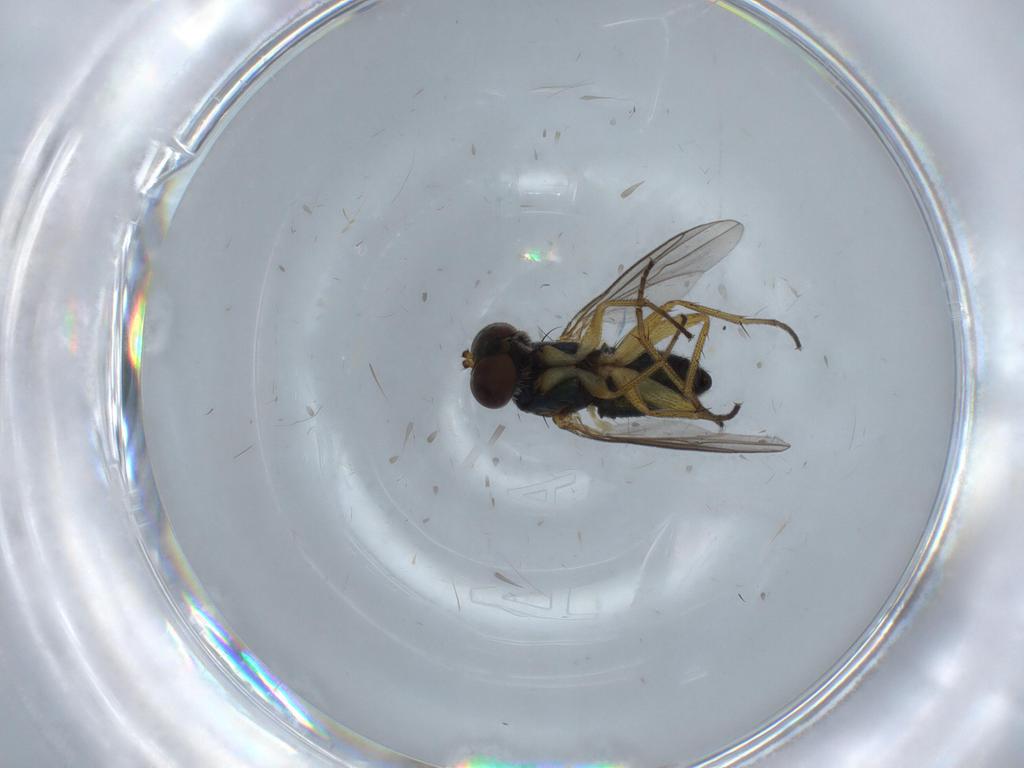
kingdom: Animalia
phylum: Arthropoda
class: Insecta
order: Diptera
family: Dolichopodidae
